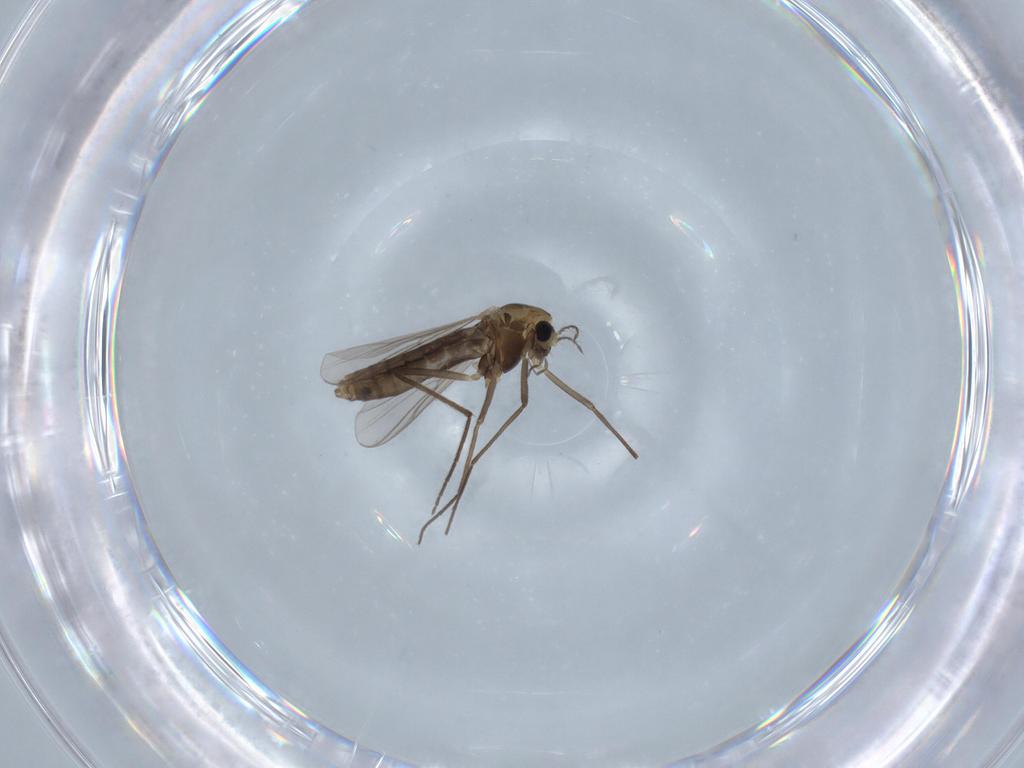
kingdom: Animalia
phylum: Arthropoda
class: Insecta
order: Diptera
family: Chironomidae
